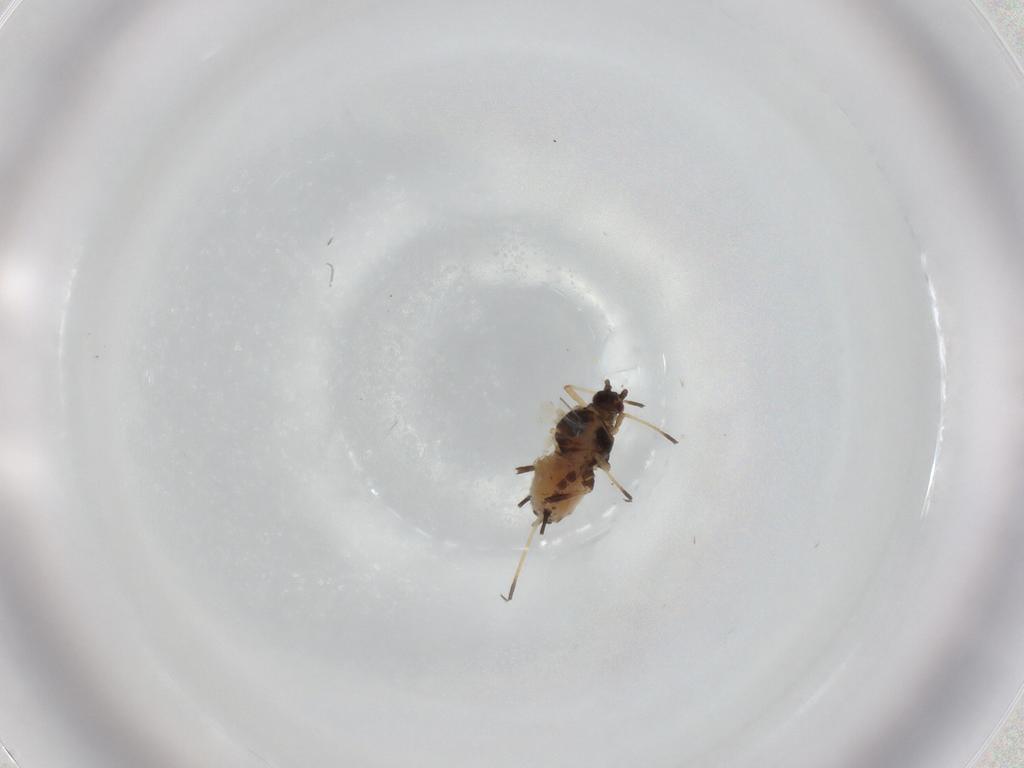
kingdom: Animalia
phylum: Arthropoda
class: Insecta
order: Hemiptera
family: Aphididae
